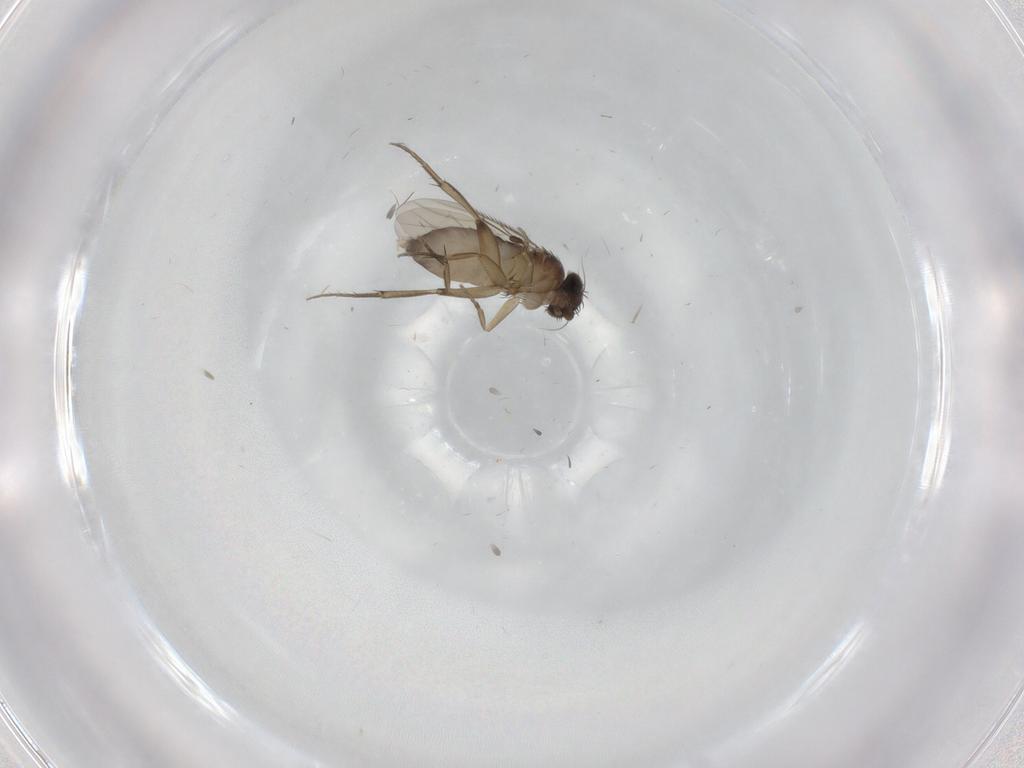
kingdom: Animalia
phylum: Arthropoda
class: Insecta
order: Diptera
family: Phoridae
